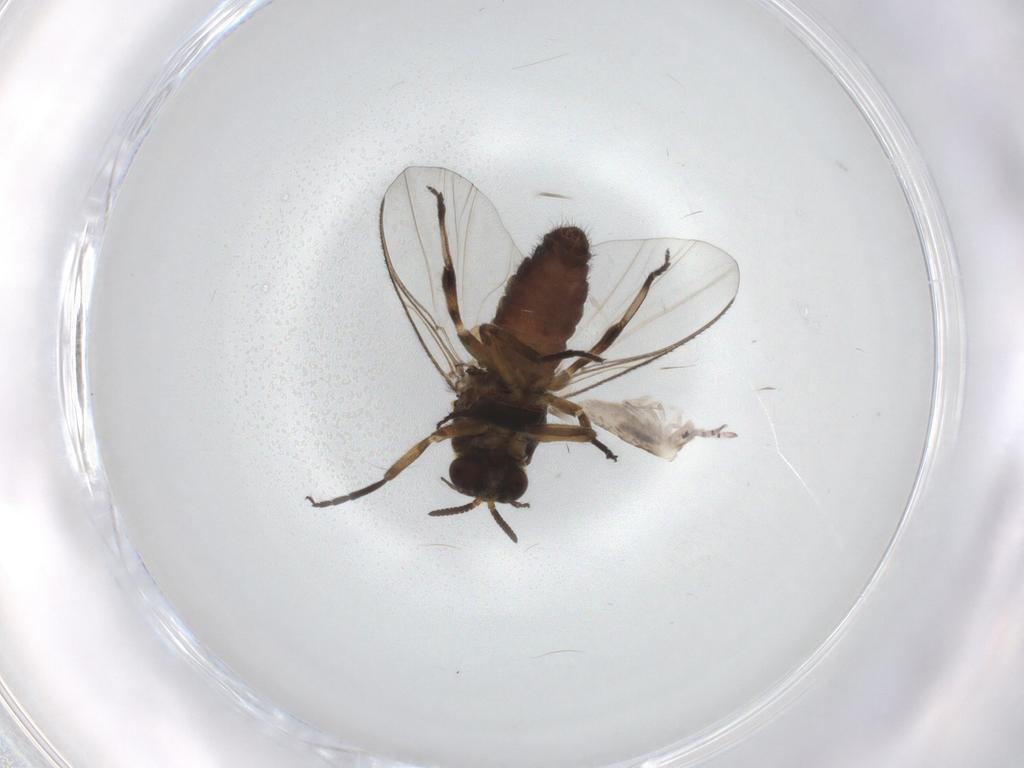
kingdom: Animalia
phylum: Arthropoda
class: Insecta
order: Diptera
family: Simuliidae
